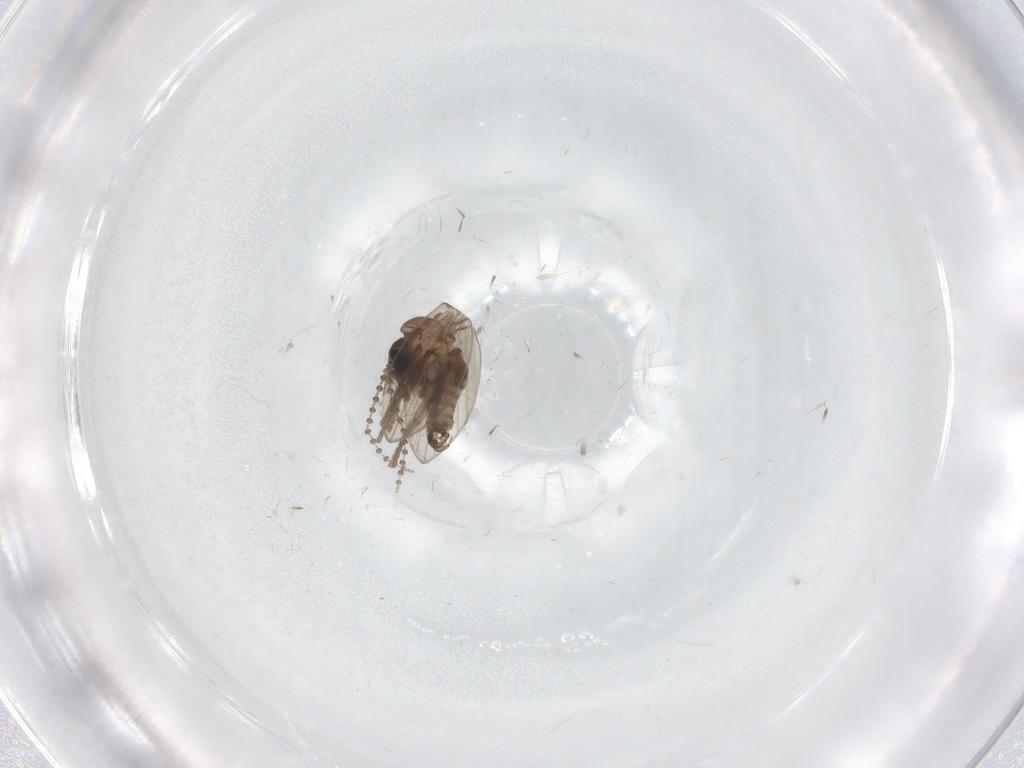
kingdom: Animalia
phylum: Arthropoda
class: Insecta
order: Diptera
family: Psychodidae
